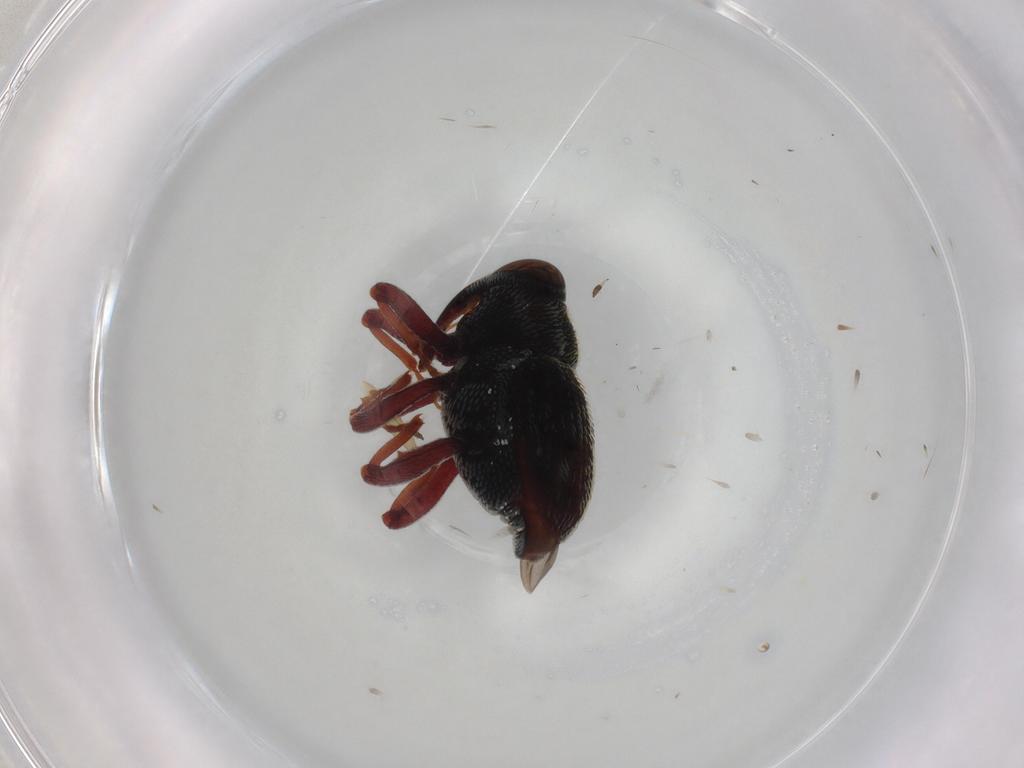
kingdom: Animalia
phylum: Arthropoda
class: Insecta
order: Coleoptera
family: Curculionidae
